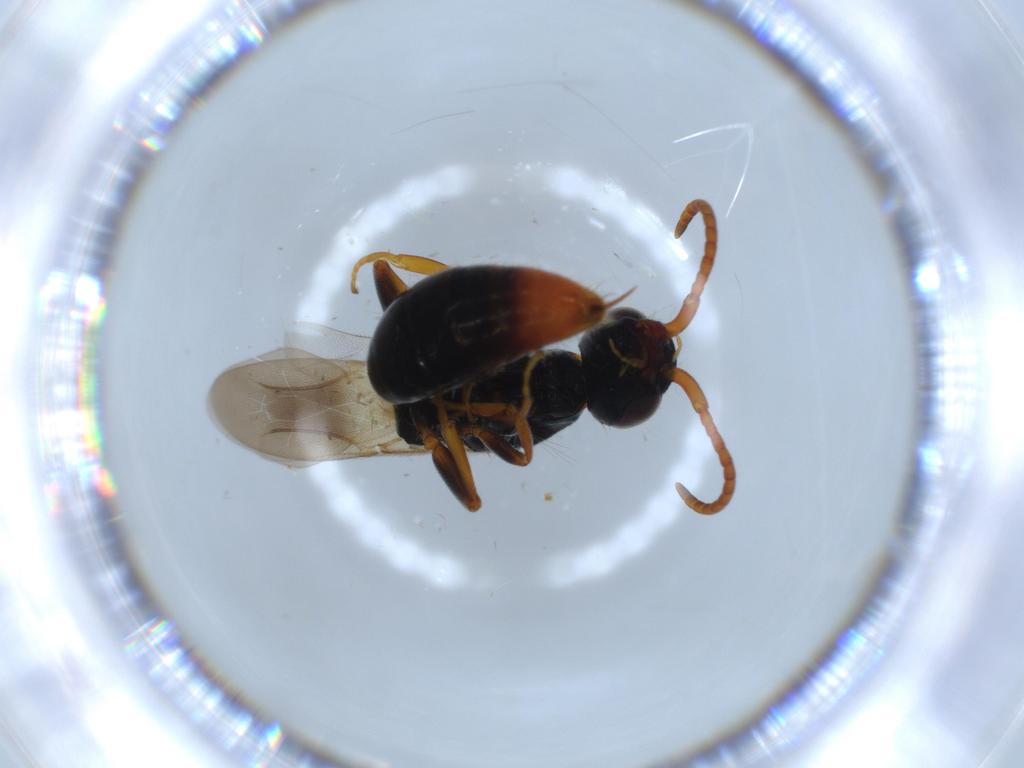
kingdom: Animalia
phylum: Arthropoda
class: Insecta
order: Hymenoptera
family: Bethylidae
